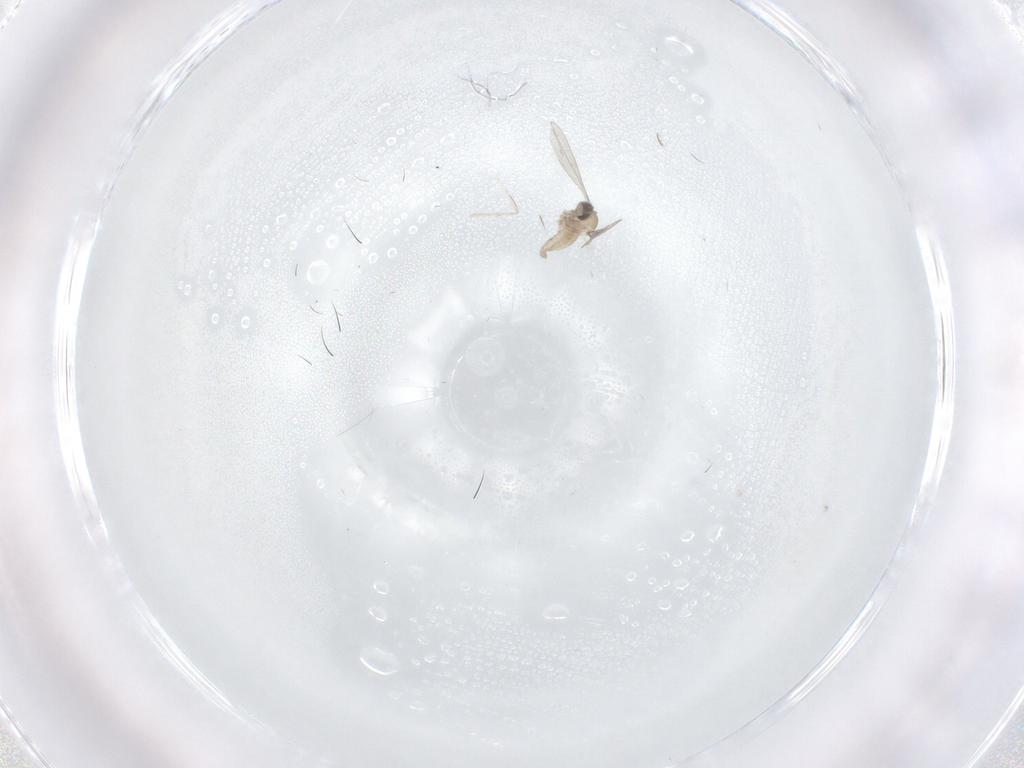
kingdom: Animalia
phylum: Arthropoda
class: Insecta
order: Diptera
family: Cecidomyiidae
